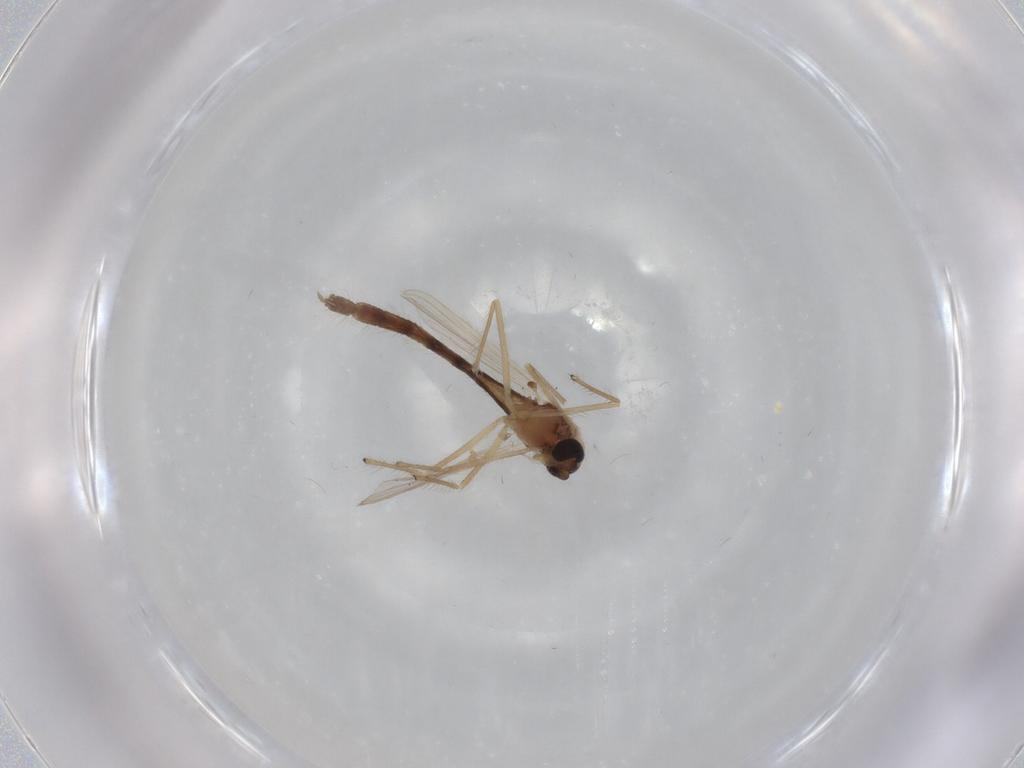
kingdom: Animalia
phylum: Arthropoda
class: Insecta
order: Diptera
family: Chironomidae
